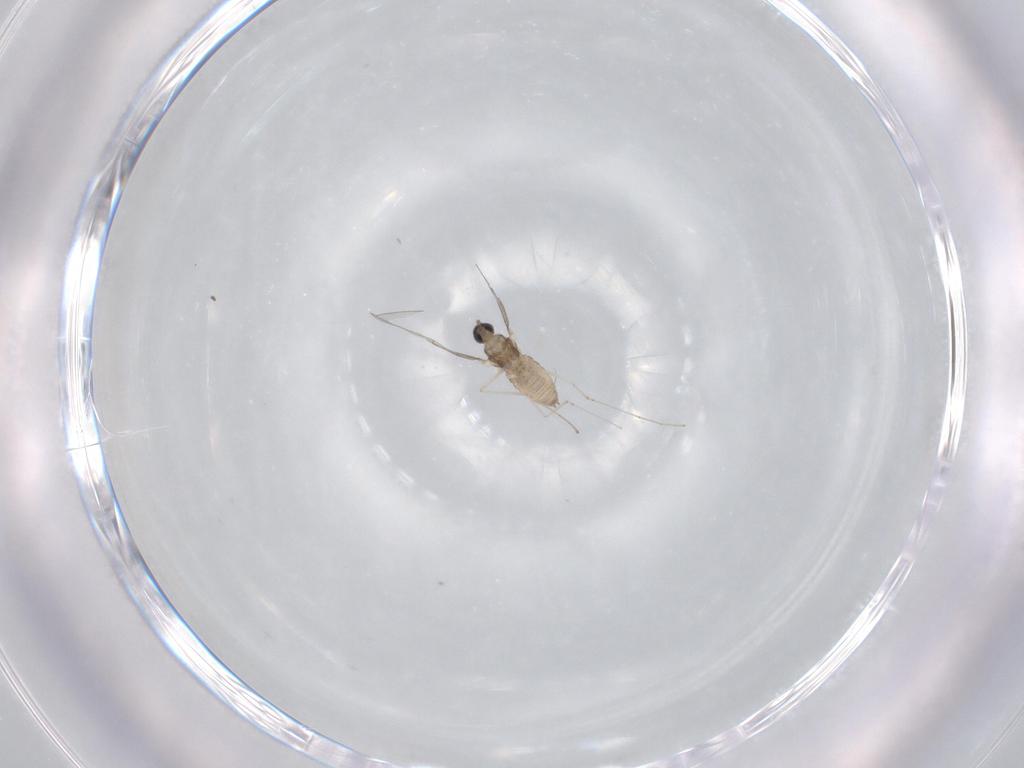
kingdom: Animalia
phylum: Arthropoda
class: Insecta
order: Diptera
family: Cecidomyiidae
